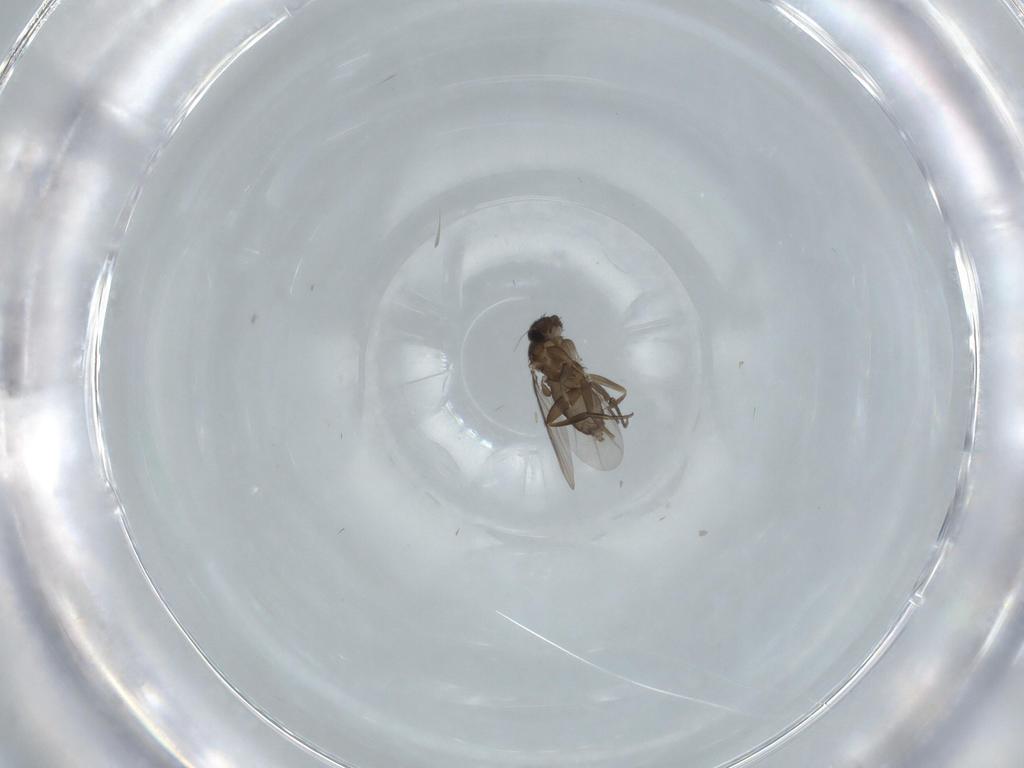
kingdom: Animalia
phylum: Arthropoda
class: Insecta
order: Diptera
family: Phoridae
